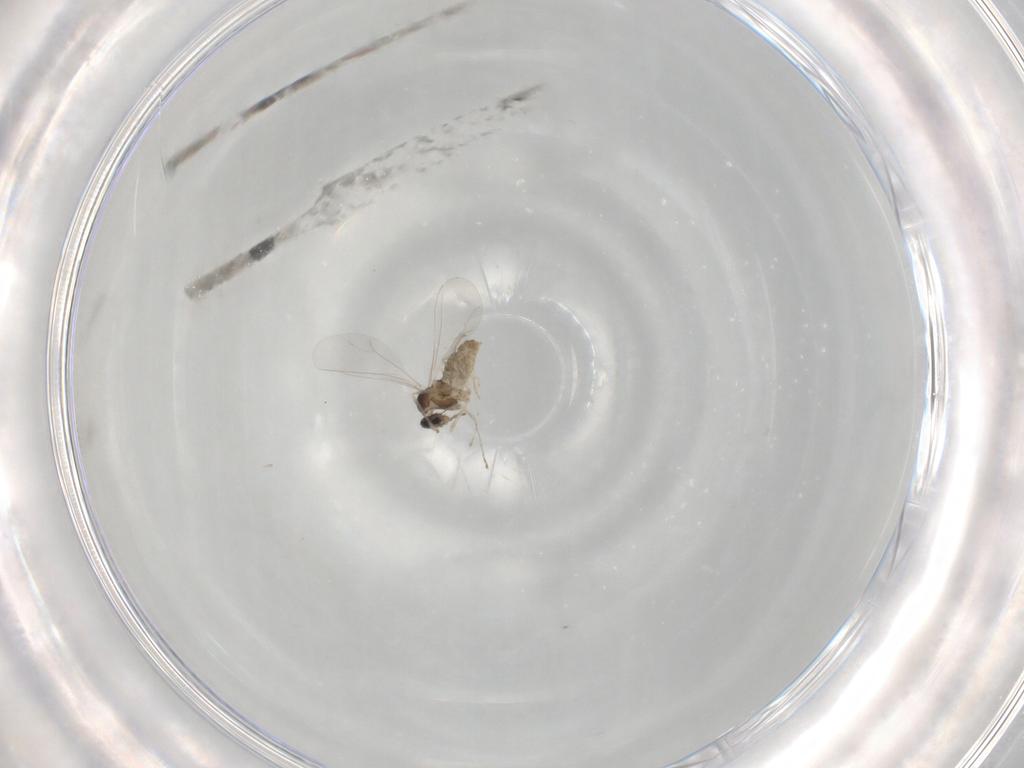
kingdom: Animalia
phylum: Arthropoda
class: Insecta
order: Diptera
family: Cecidomyiidae
